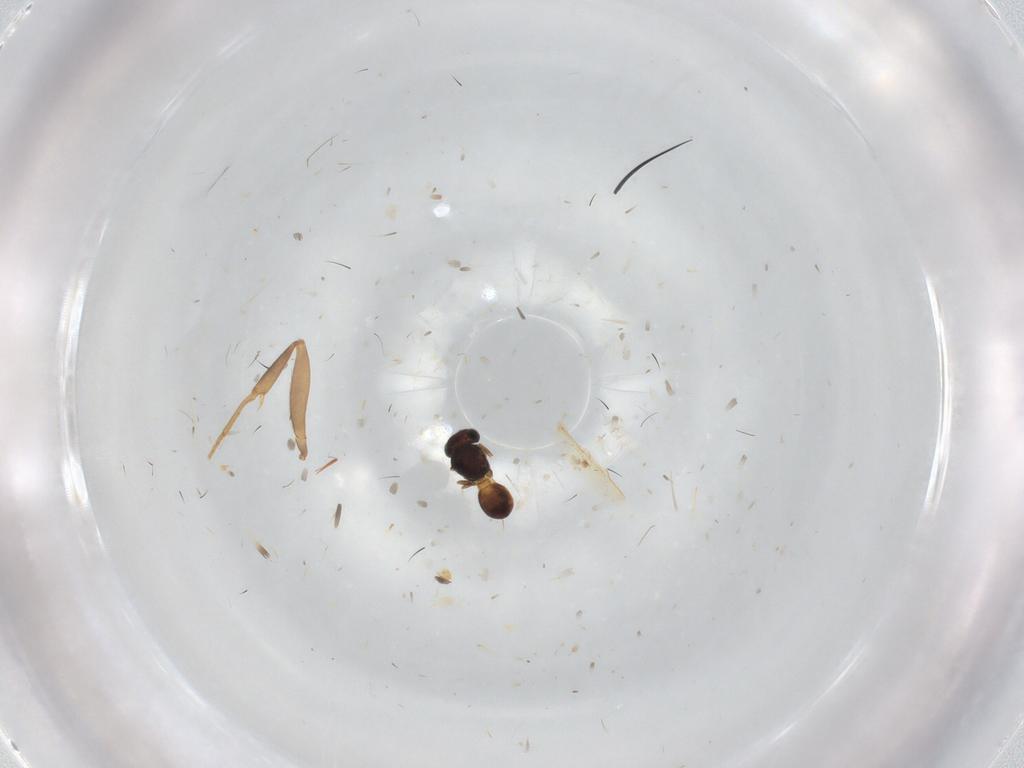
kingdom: Animalia
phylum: Arthropoda
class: Insecta
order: Hymenoptera
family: Scelionidae
